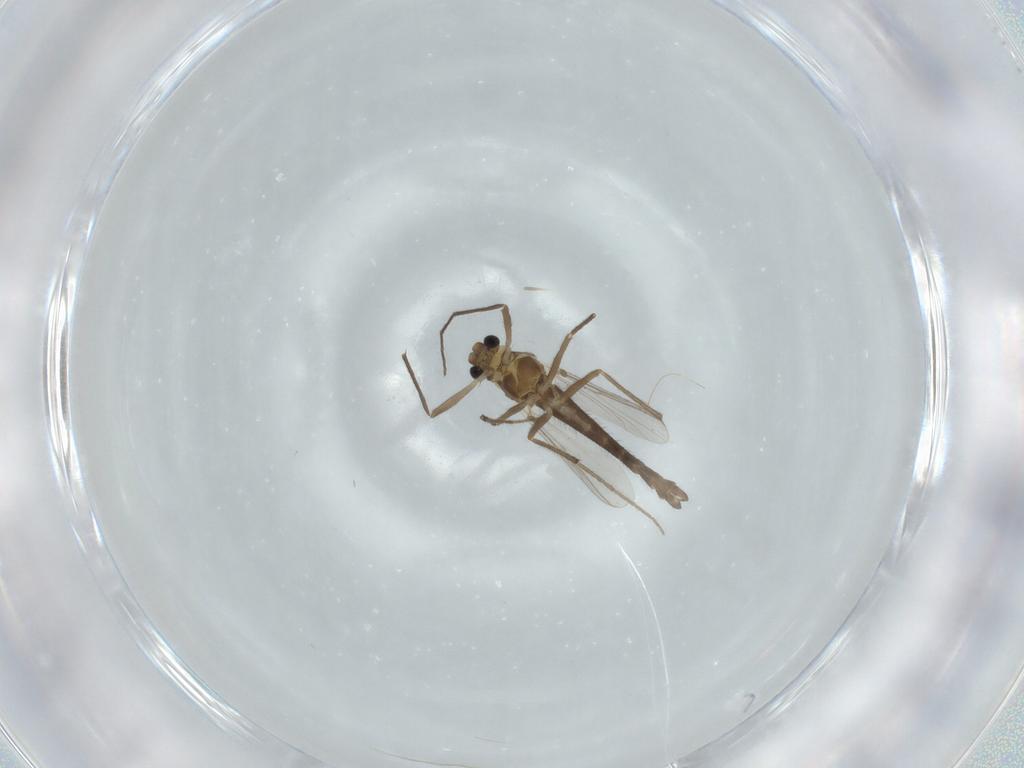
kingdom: Animalia
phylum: Arthropoda
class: Insecta
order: Diptera
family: Chironomidae
